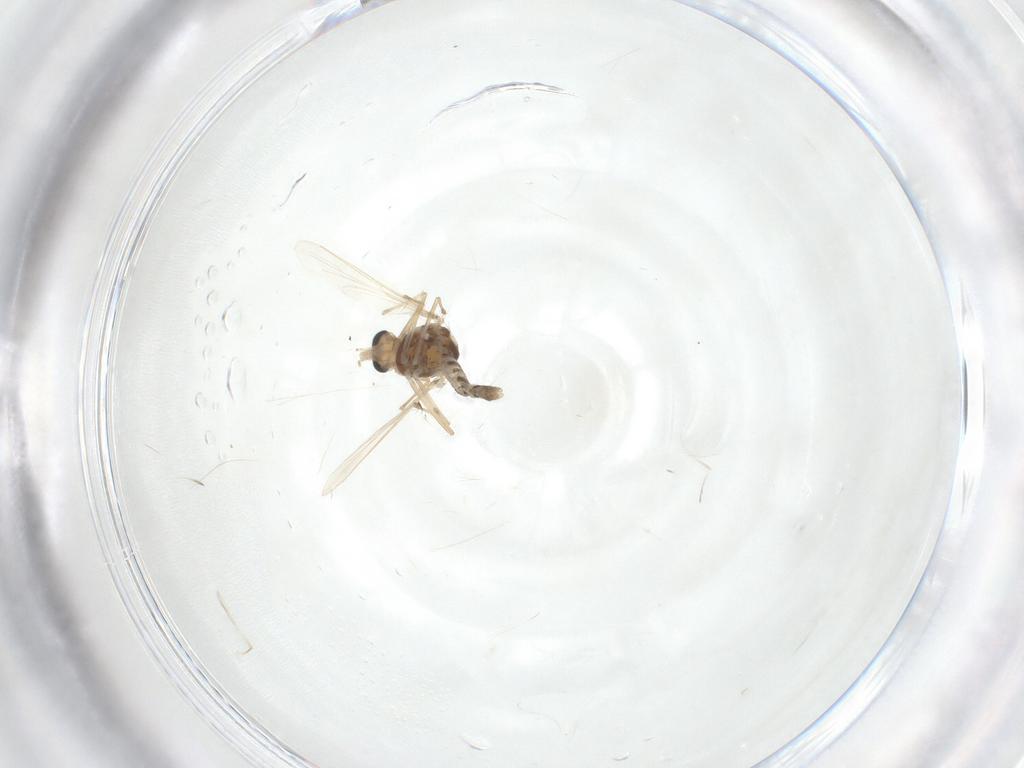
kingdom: Animalia
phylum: Arthropoda
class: Insecta
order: Diptera
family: Chironomidae
